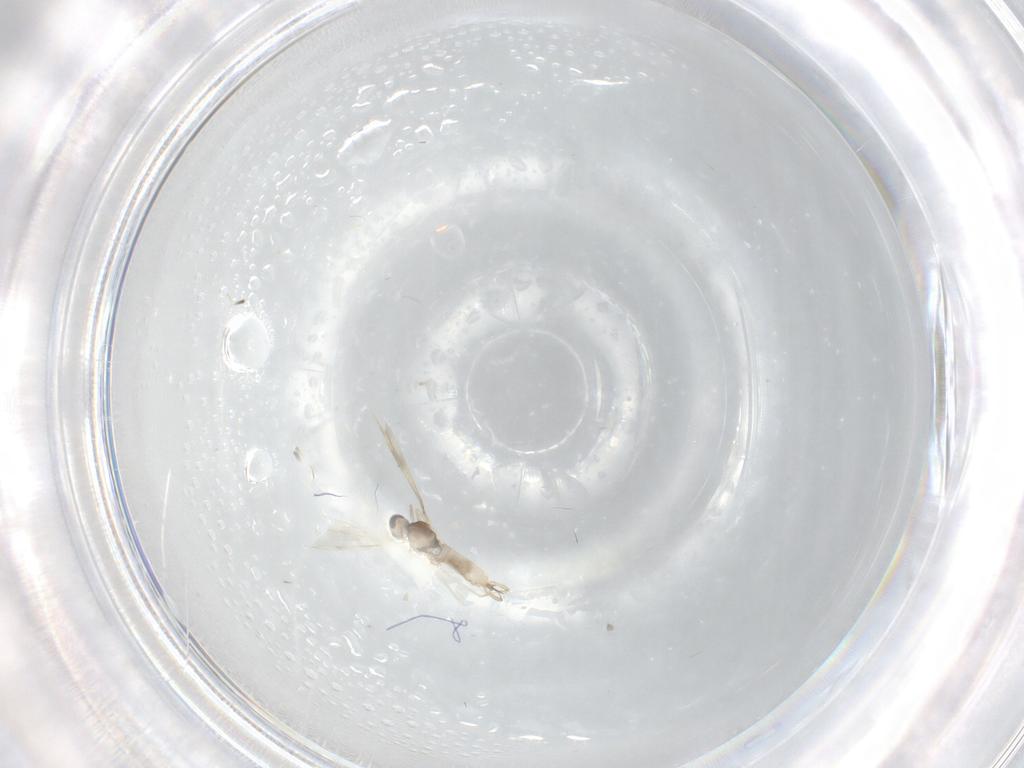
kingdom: Animalia
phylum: Arthropoda
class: Insecta
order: Diptera
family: Cecidomyiidae
